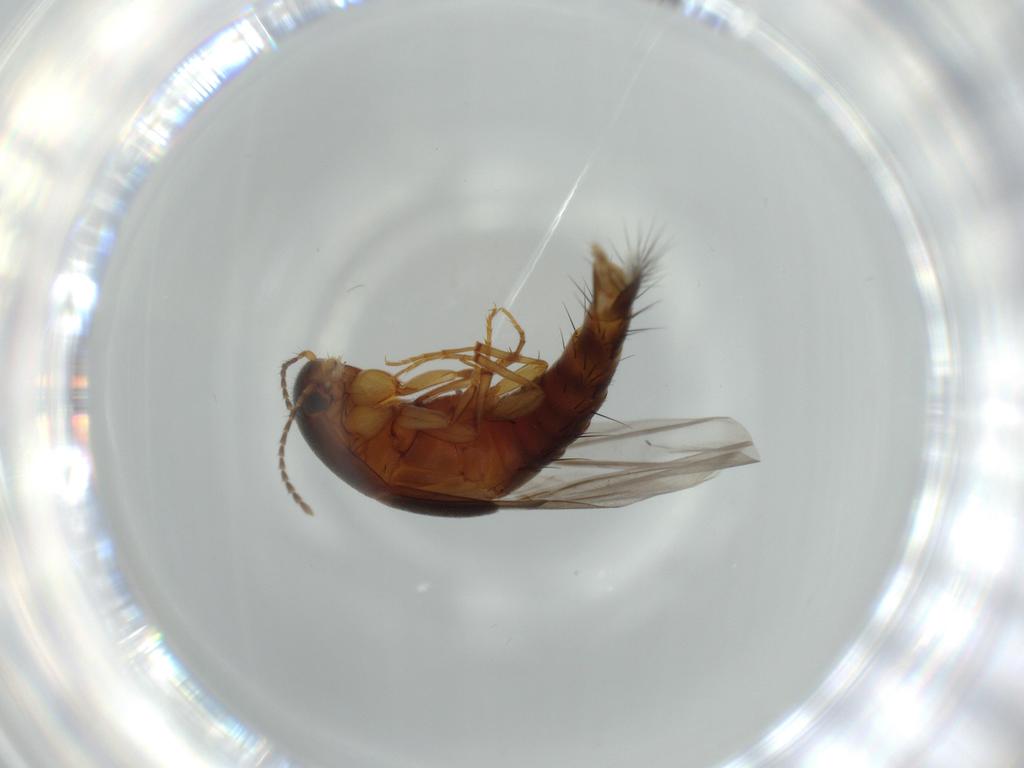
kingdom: Animalia
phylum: Arthropoda
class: Insecta
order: Coleoptera
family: Staphylinidae
